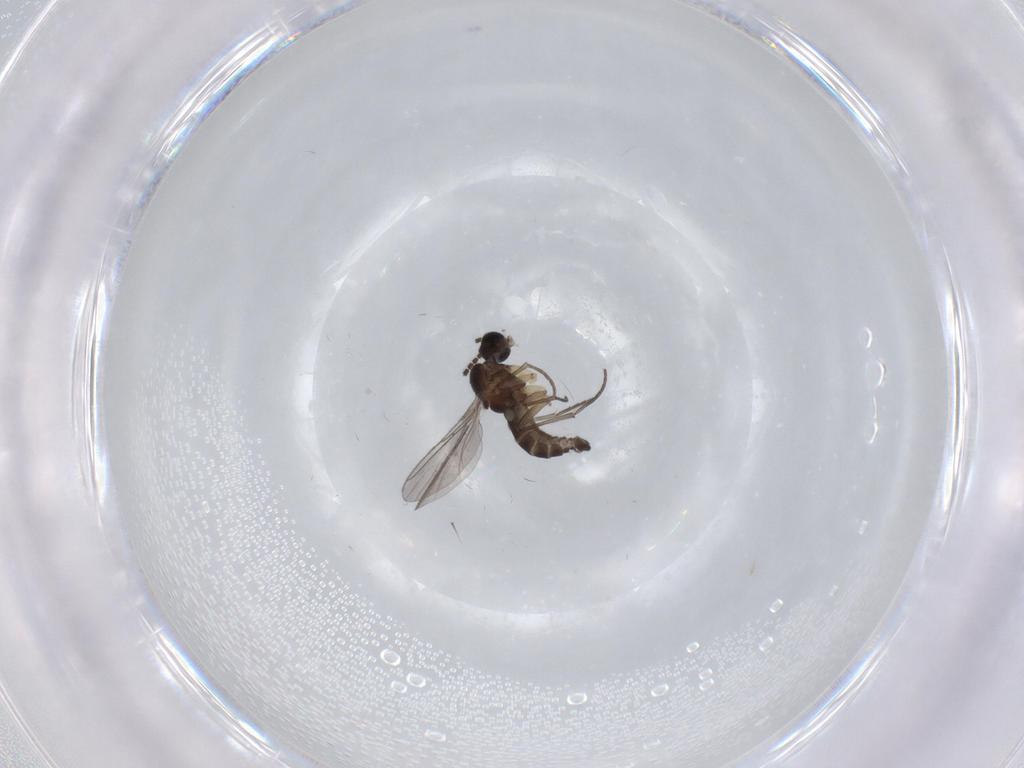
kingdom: Animalia
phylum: Arthropoda
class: Insecta
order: Diptera
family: Sciaridae
